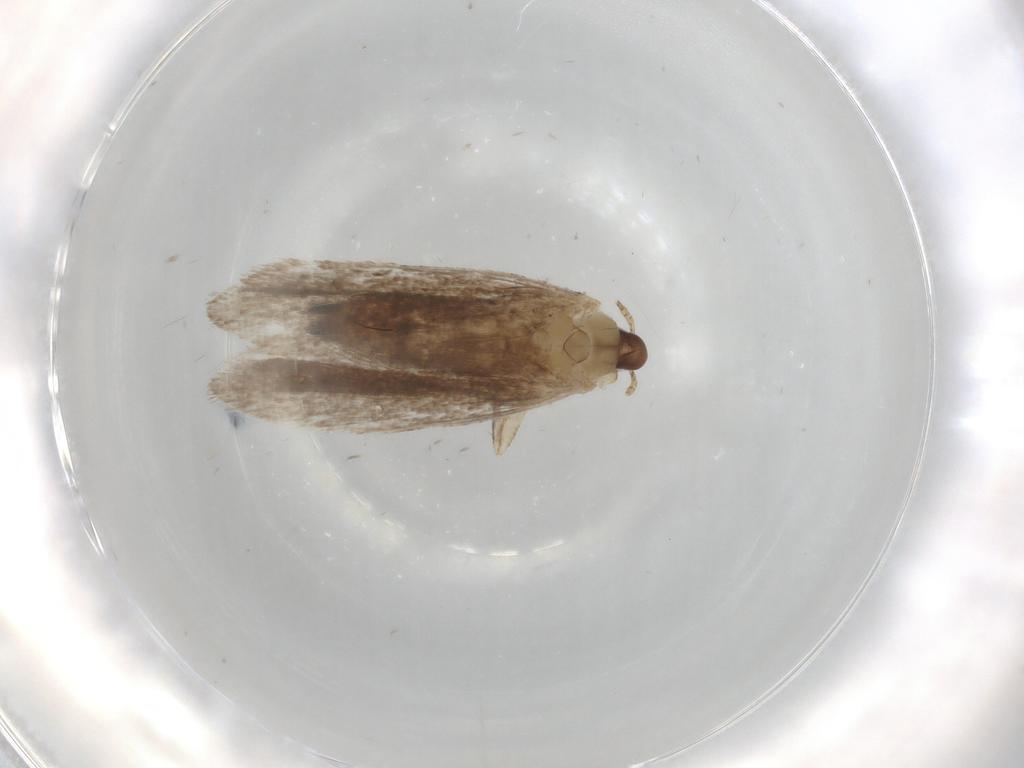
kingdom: Animalia
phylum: Arthropoda
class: Insecta
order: Lepidoptera
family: Gelechiidae
